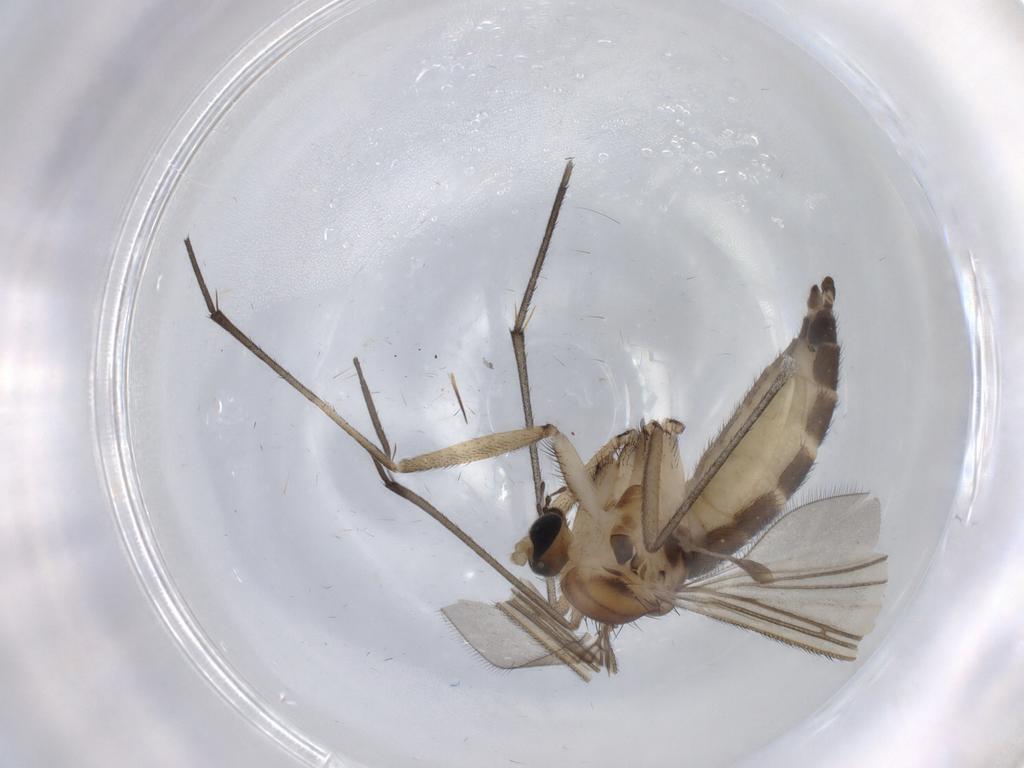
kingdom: Animalia
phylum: Arthropoda
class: Insecta
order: Diptera
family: Sciaridae
